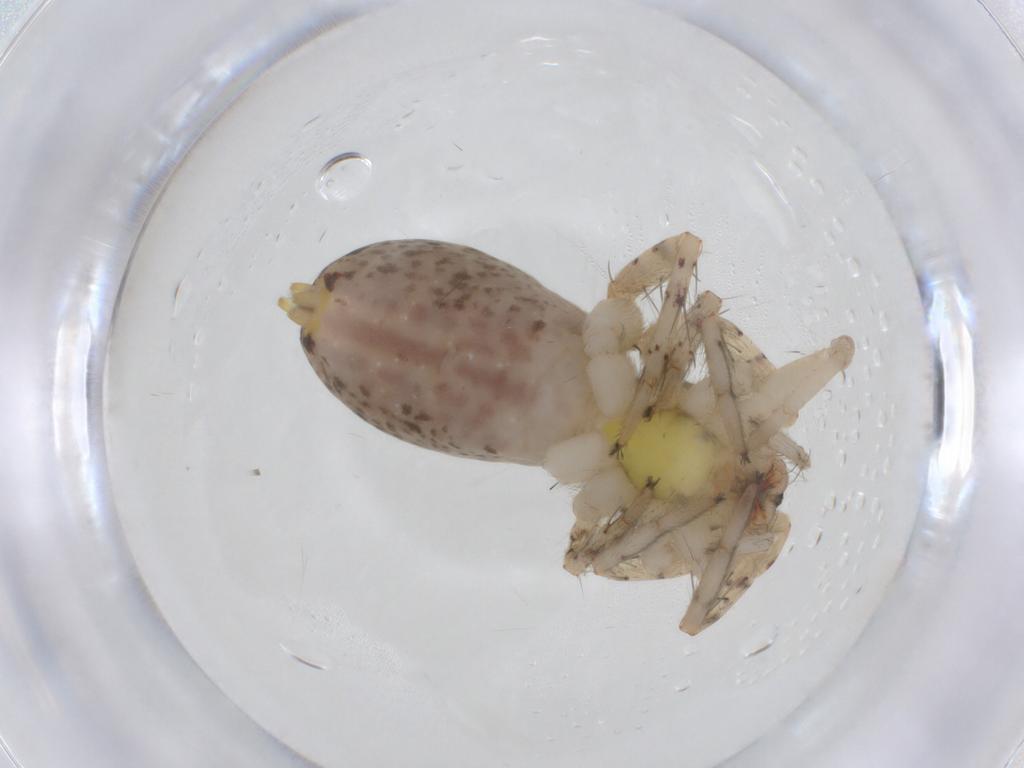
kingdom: Animalia
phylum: Arthropoda
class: Arachnida
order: Araneae
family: Anyphaenidae
